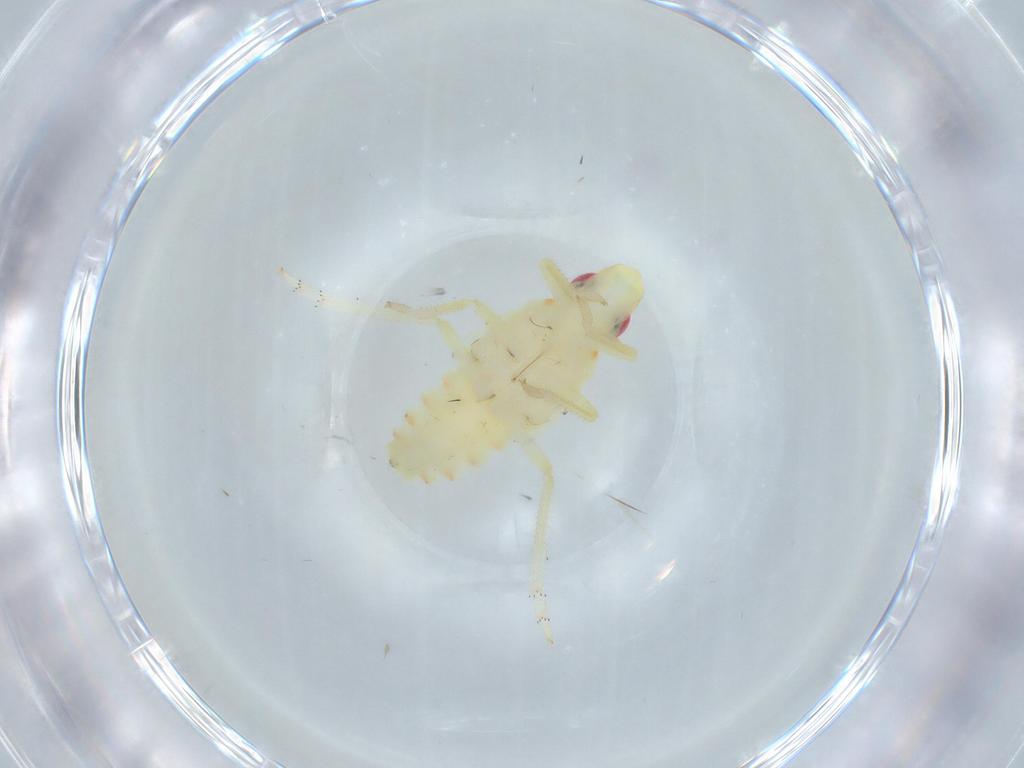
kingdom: Animalia
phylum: Arthropoda
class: Insecta
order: Hemiptera
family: Tropiduchidae
